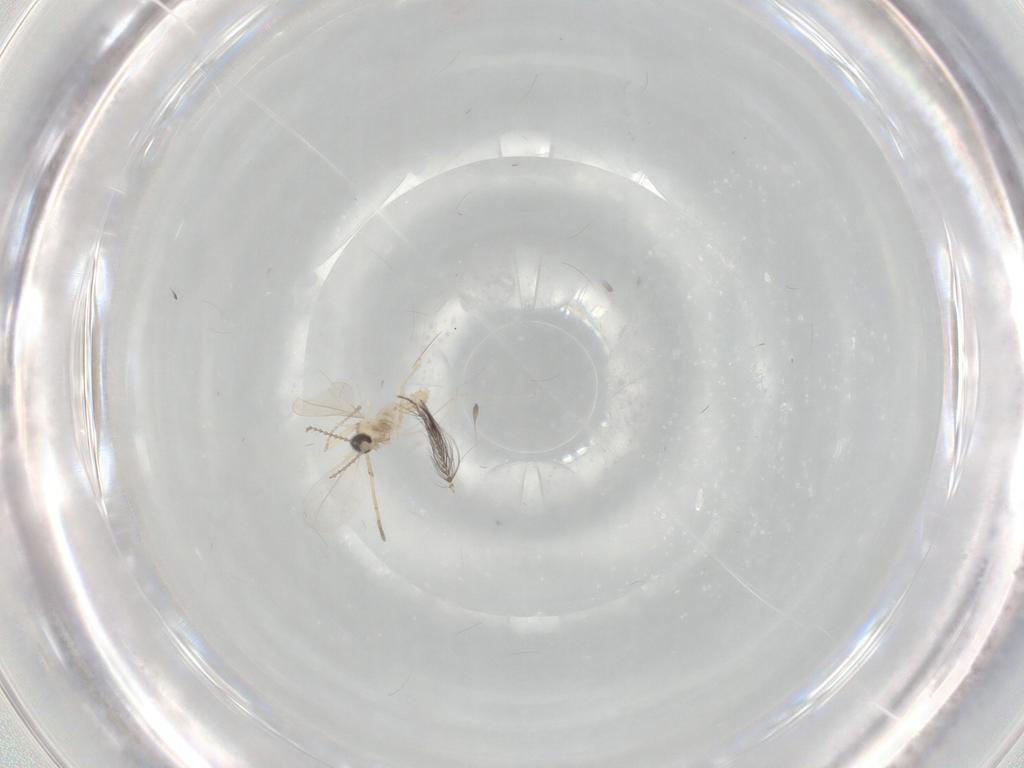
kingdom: Animalia
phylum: Arthropoda
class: Insecta
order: Diptera
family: Ceratopogonidae
